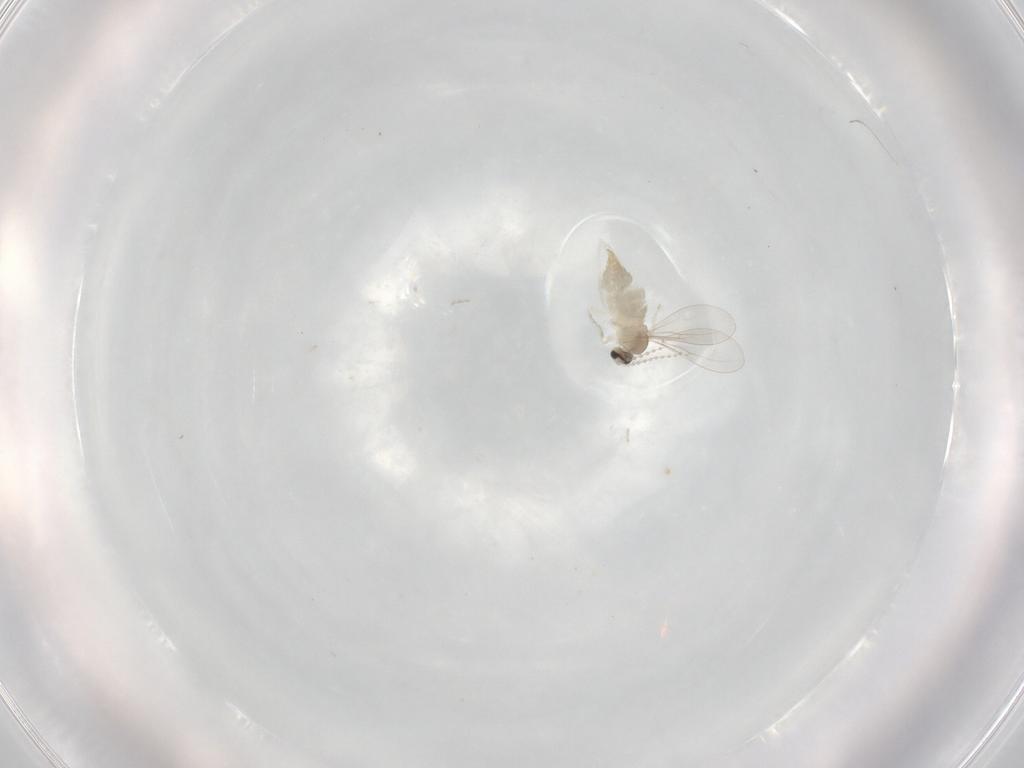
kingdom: Animalia
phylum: Arthropoda
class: Insecta
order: Diptera
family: Cecidomyiidae
